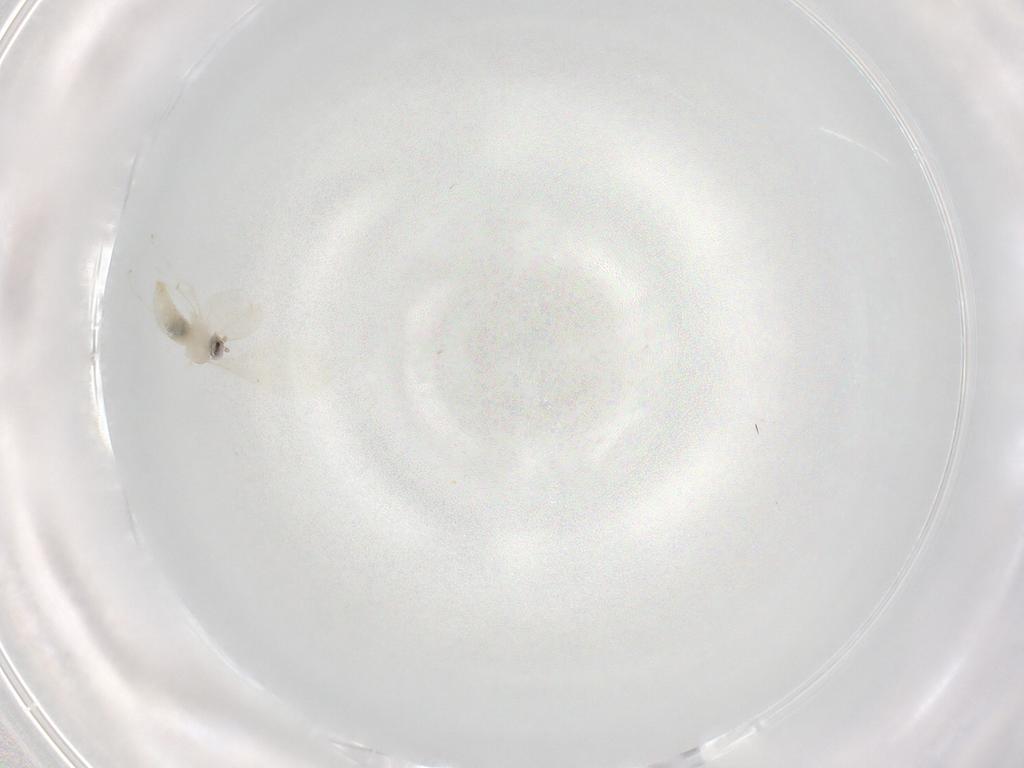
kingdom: Animalia
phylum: Arthropoda
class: Insecta
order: Diptera
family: Cecidomyiidae
